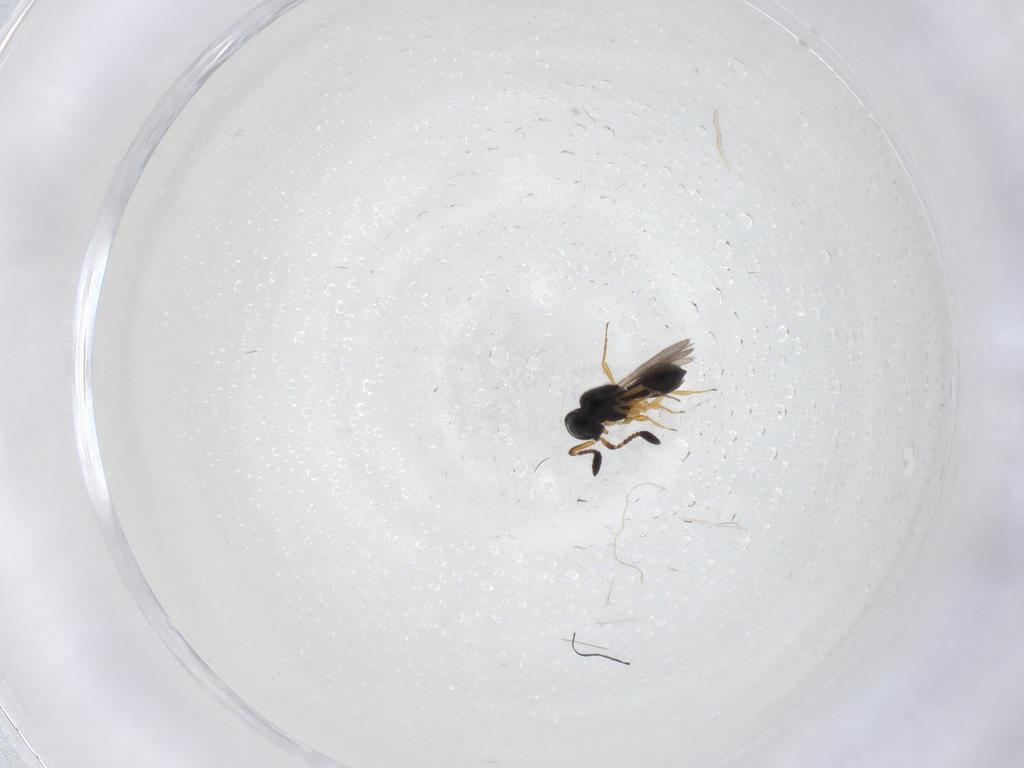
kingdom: Animalia
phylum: Arthropoda
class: Insecta
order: Hymenoptera
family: Scelionidae
